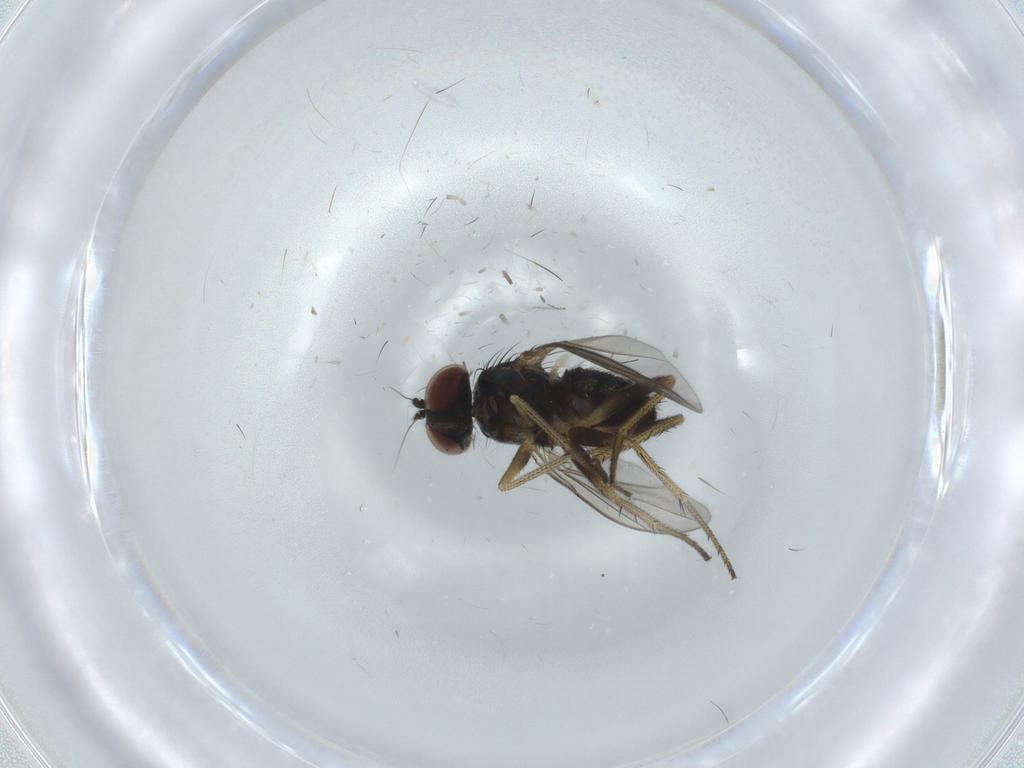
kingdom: Animalia
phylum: Arthropoda
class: Insecta
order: Diptera
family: Dolichopodidae
